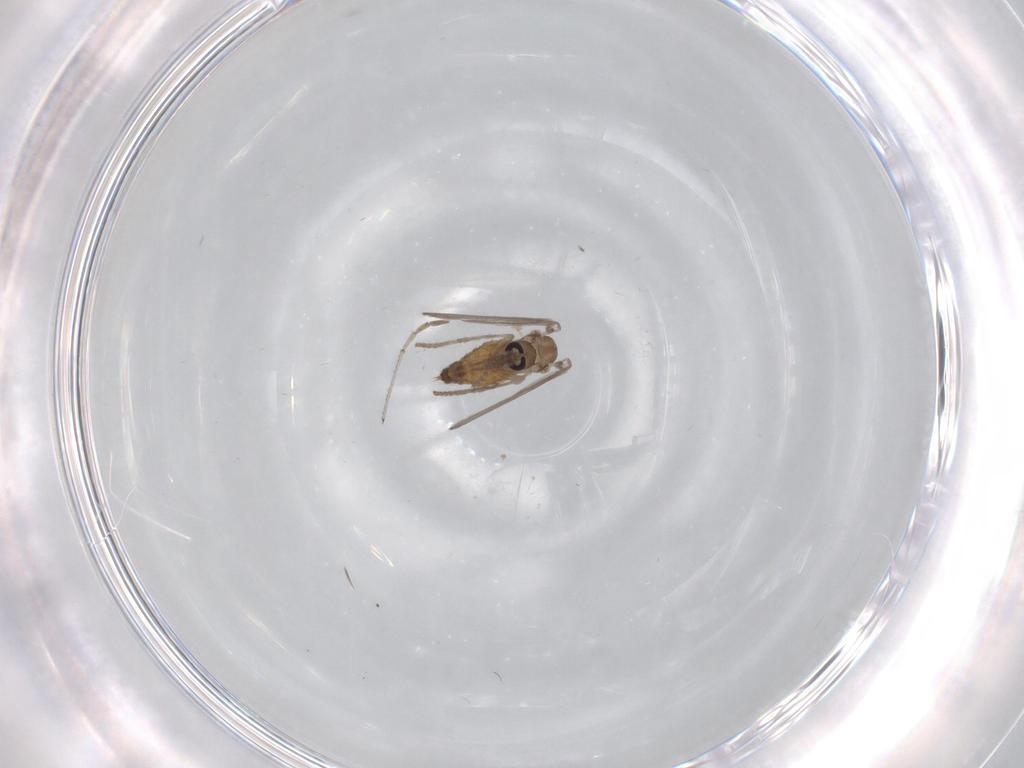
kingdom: Animalia
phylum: Arthropoda
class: Insecta
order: Diptera
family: Psychodidae
